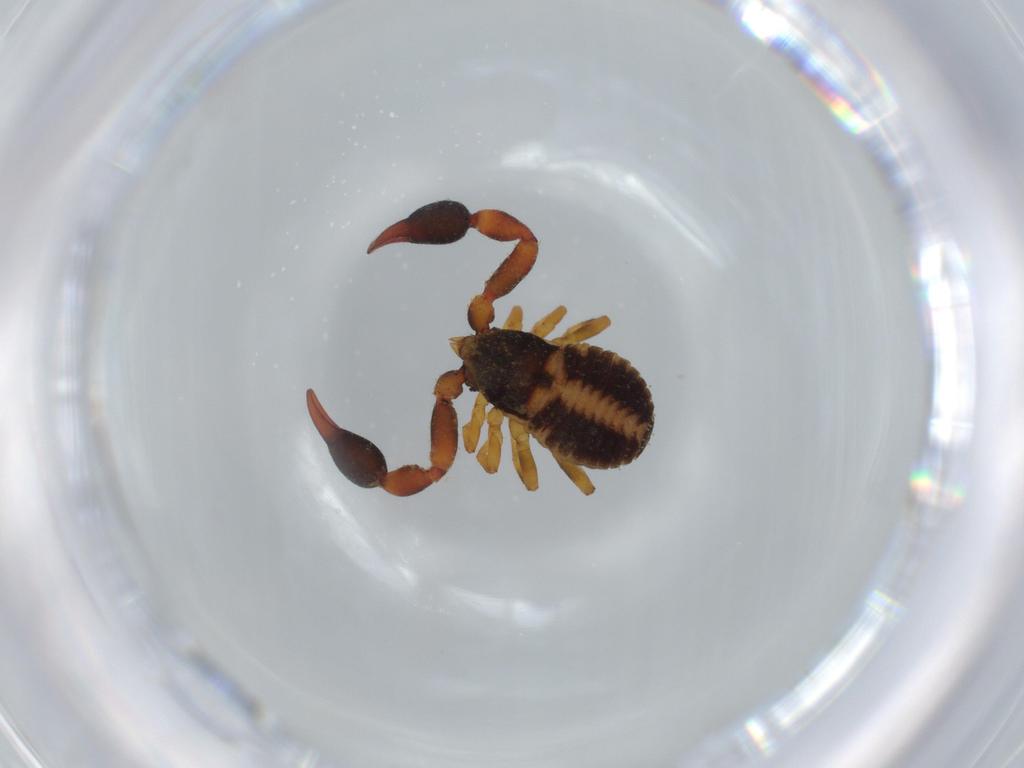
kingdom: Animalia
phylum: Arthropoda
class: Arachnida
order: Pseudoscorpiones
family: Chernetidae
